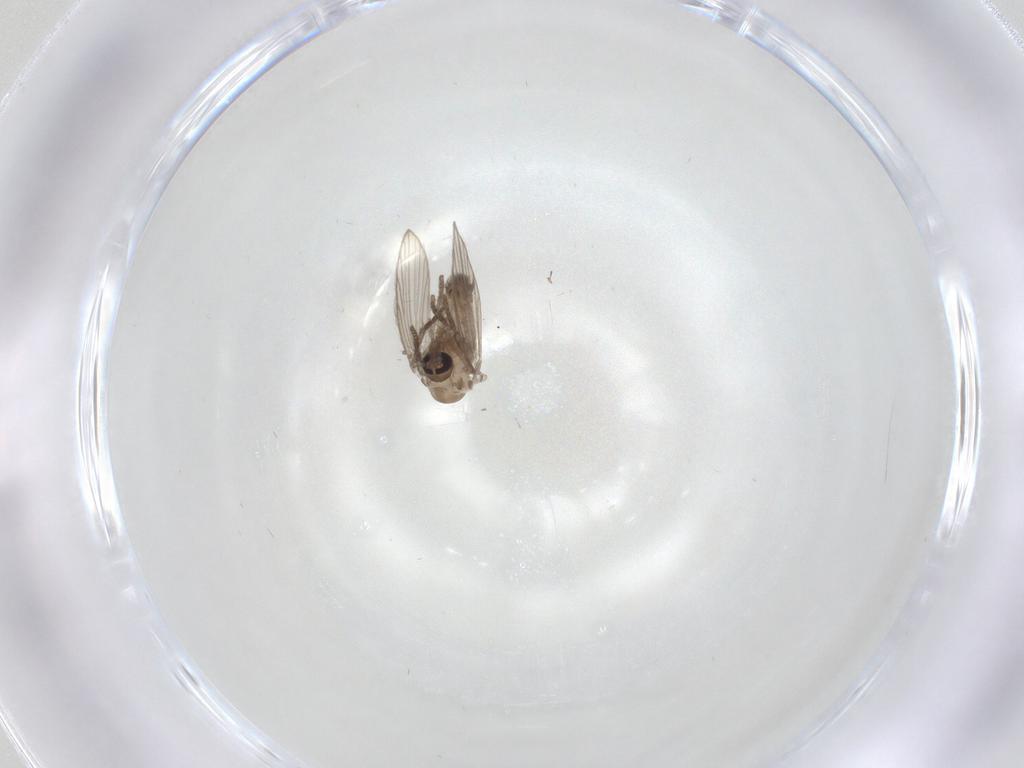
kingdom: Animalia
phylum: Arthropoda
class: Insecta
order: Diptera
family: Psychodidae
